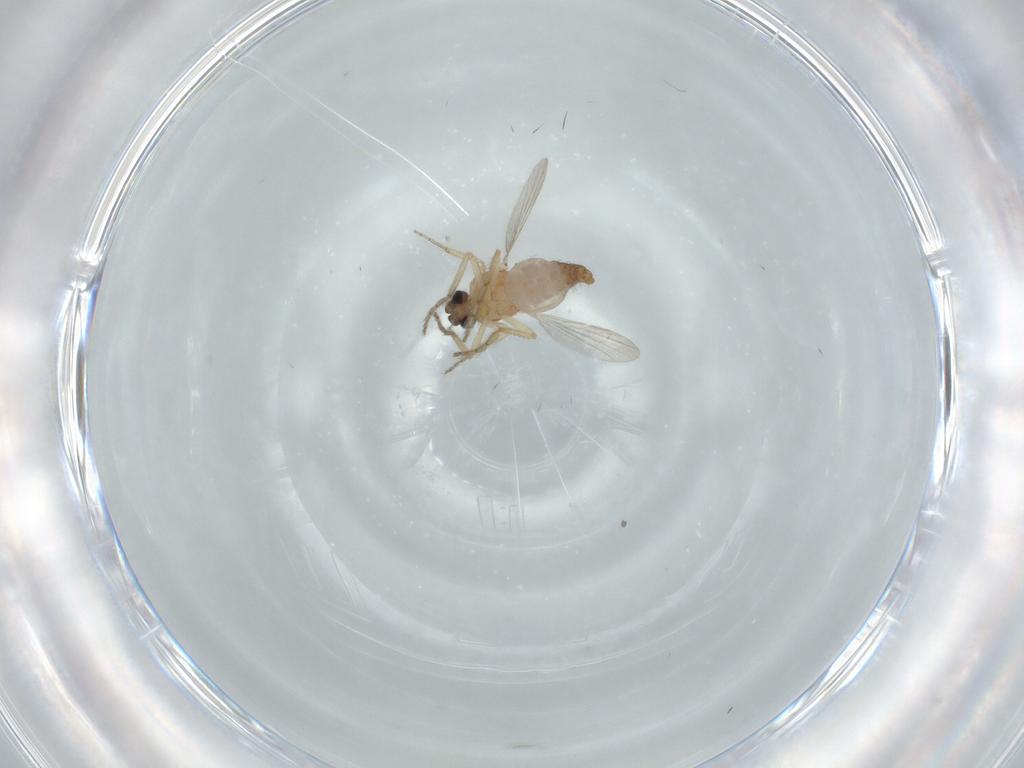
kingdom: Animalia
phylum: Arthropoda
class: Insecta
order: Diptera
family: Ceratopogonidae
